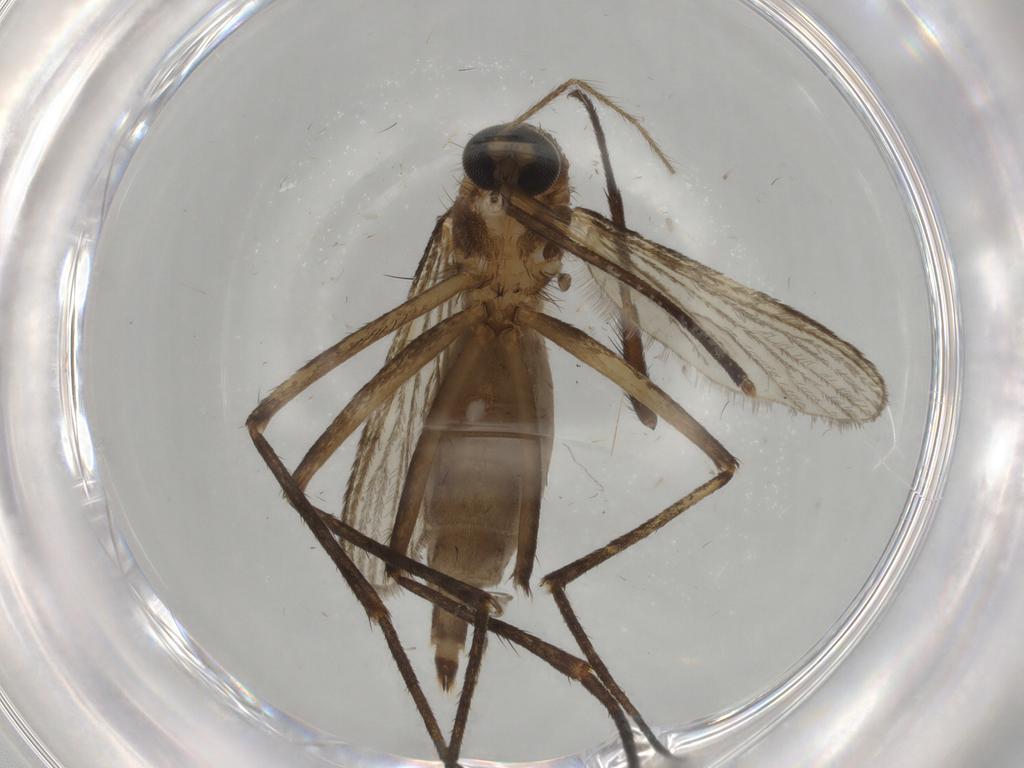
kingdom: Animalia
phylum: Arthropoda
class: Insecta
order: Diptera
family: Culicidae
